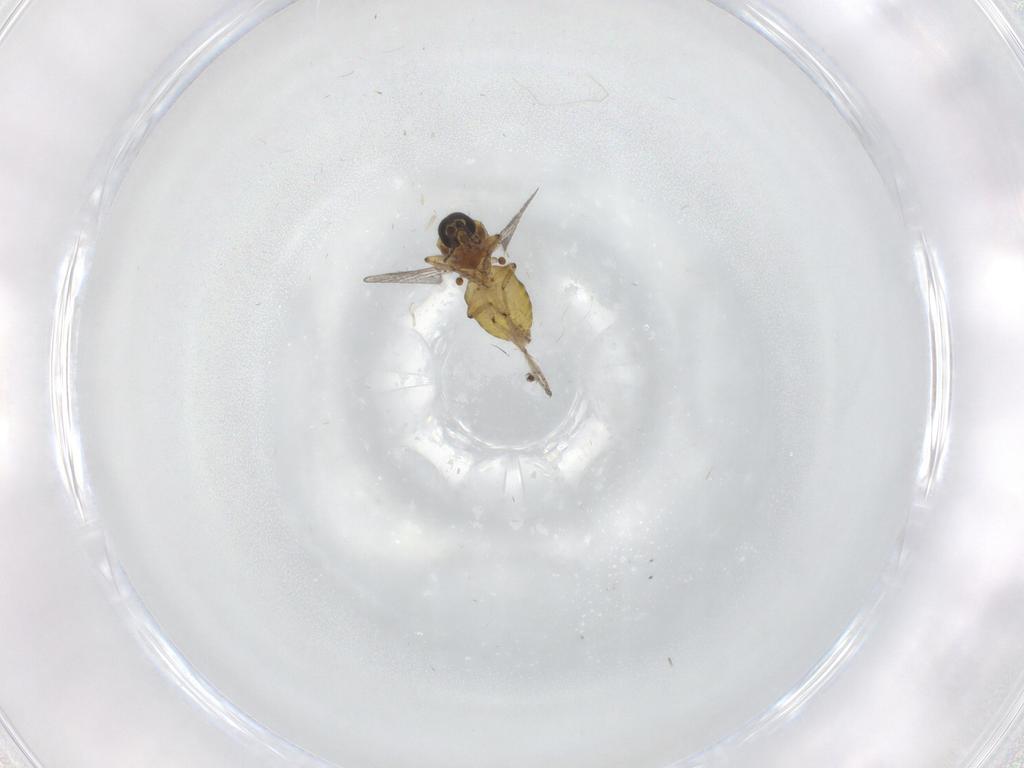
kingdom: Animalia
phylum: Arthropoda
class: Insecta
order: Diptera
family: Ceratopogonidae
